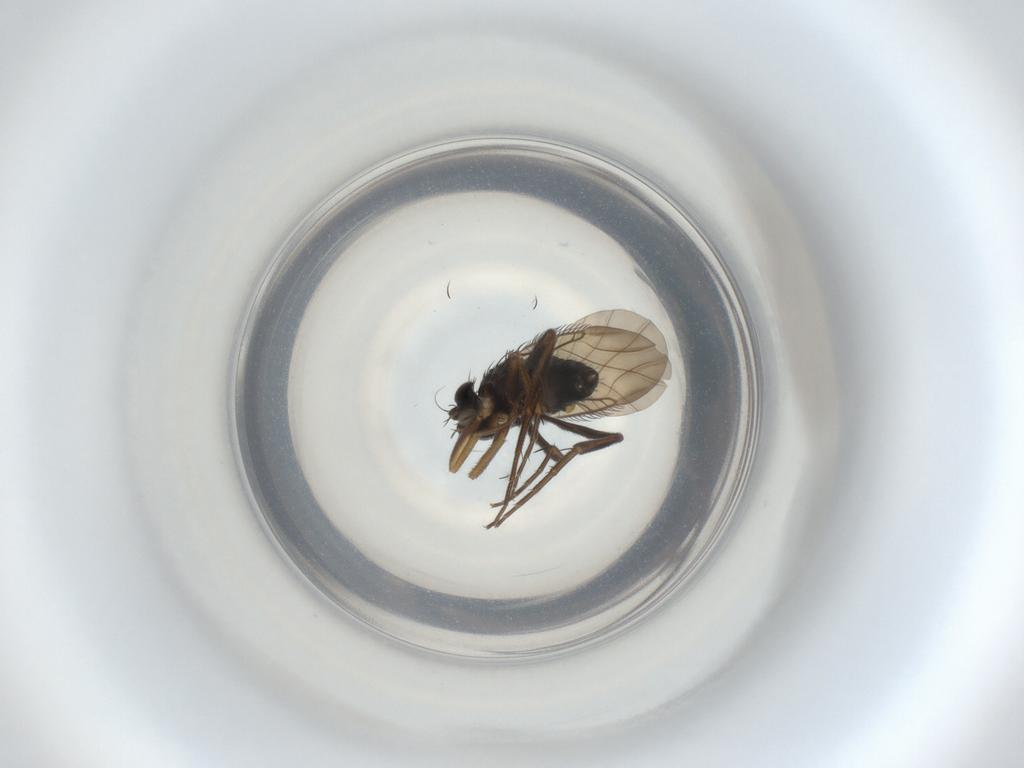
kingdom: Animalia
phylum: Arthropoda
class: Insecta
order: Diptera
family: Phoridae
